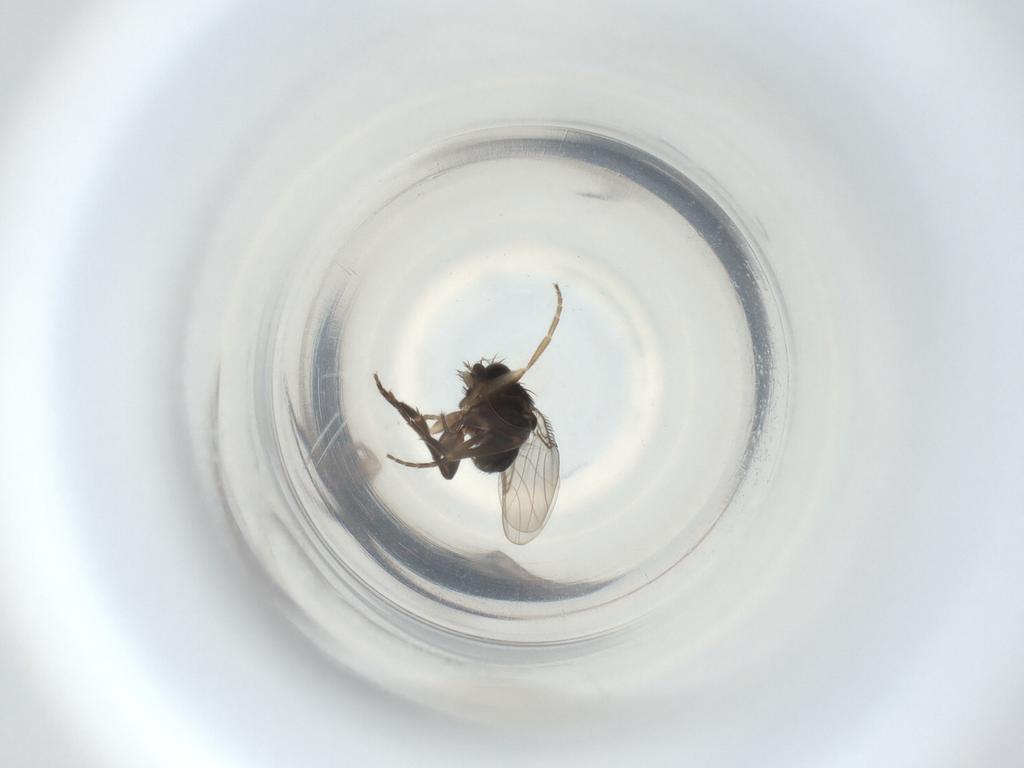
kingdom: Animalia
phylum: Arthropoda
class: Insecta
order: Diptera
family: Phoridae
